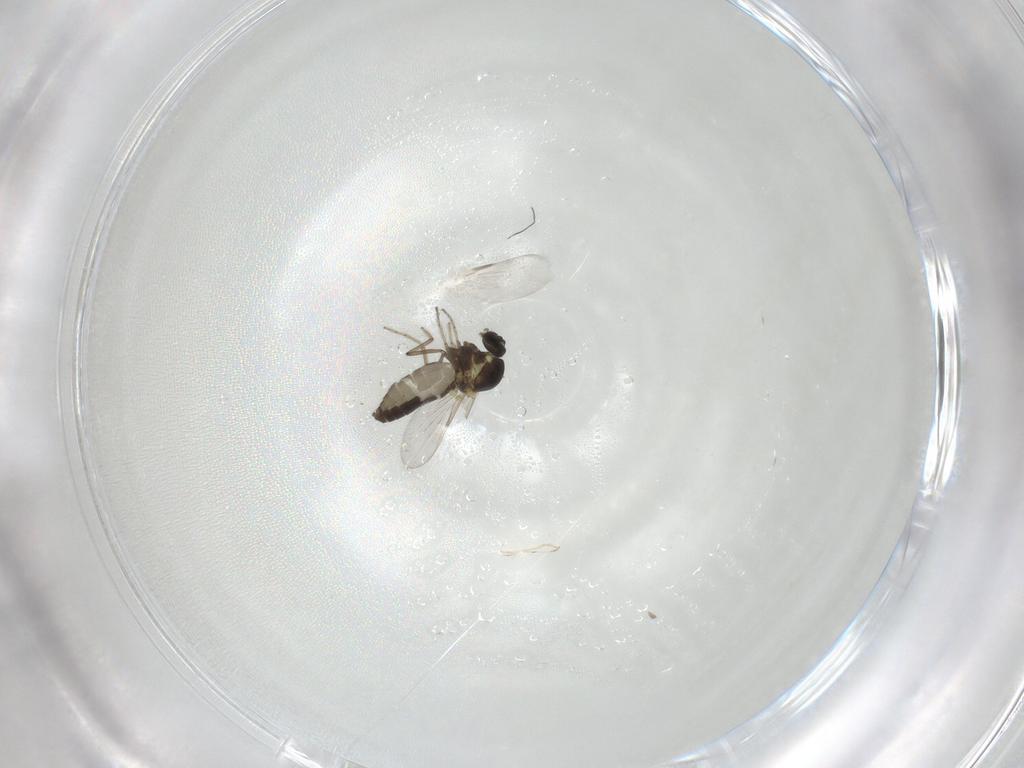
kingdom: Animalia
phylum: Arthropoda
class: Insecta
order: Diptera
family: Ceratopogonidae
